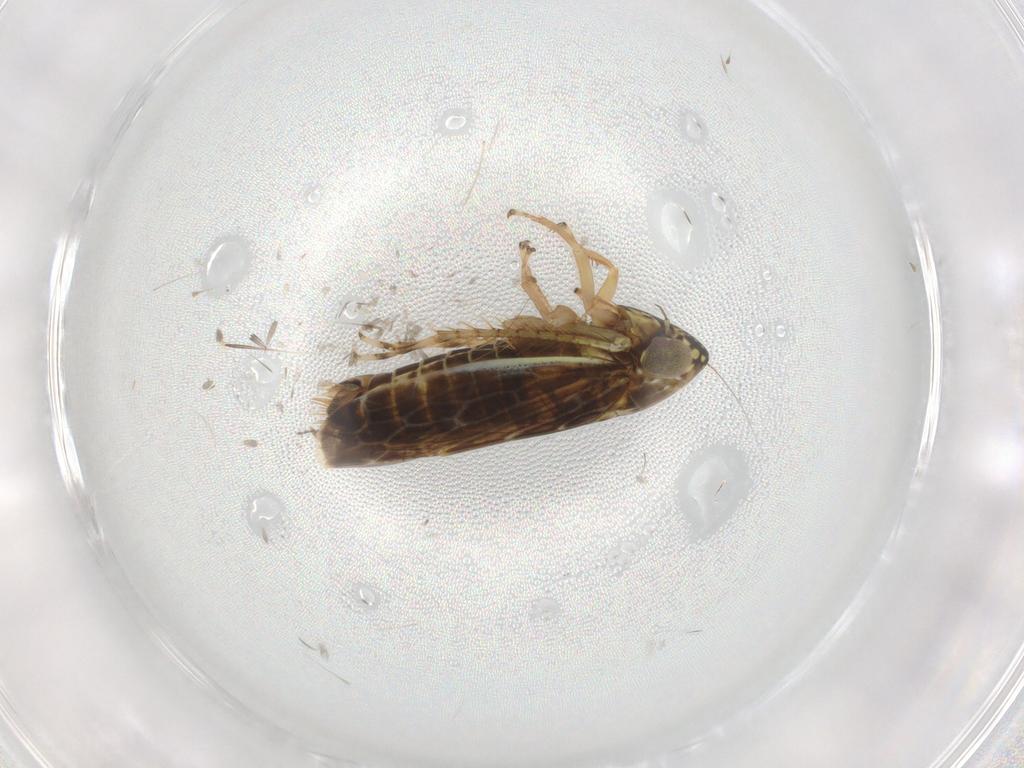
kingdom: Animalia
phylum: Arthropoda
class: Insecta
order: Hemiptera
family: Cicadellidae
